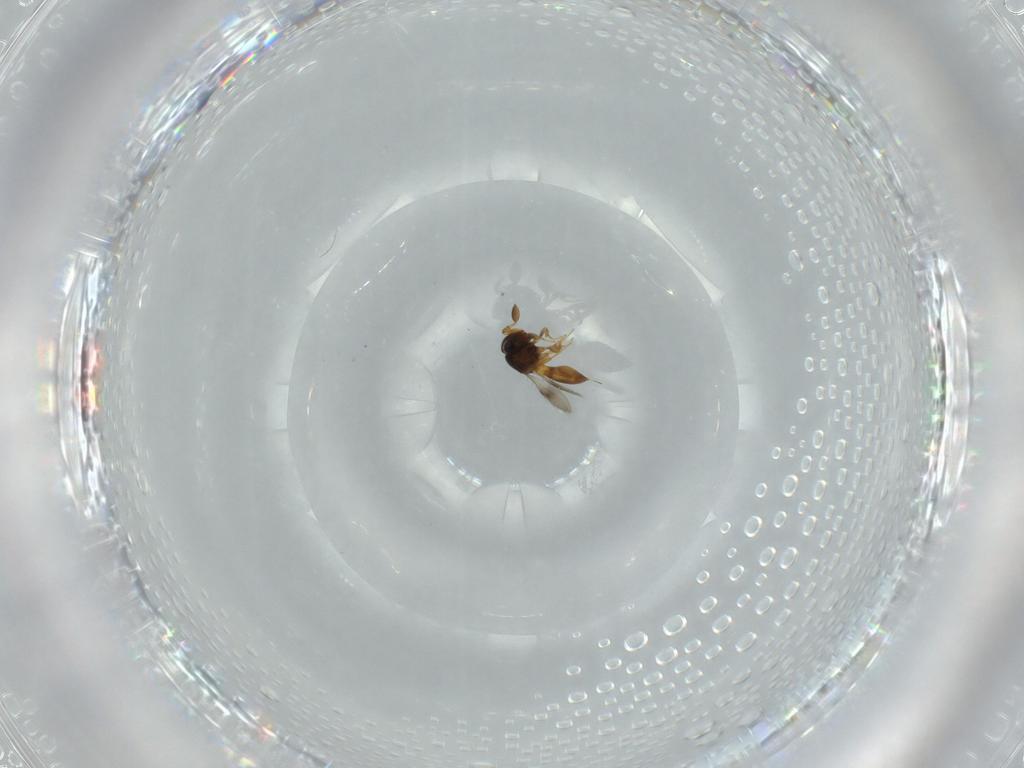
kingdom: Animalia
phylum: Arthropoda
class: Insecta
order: Hymenoptera
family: Scelionidae
